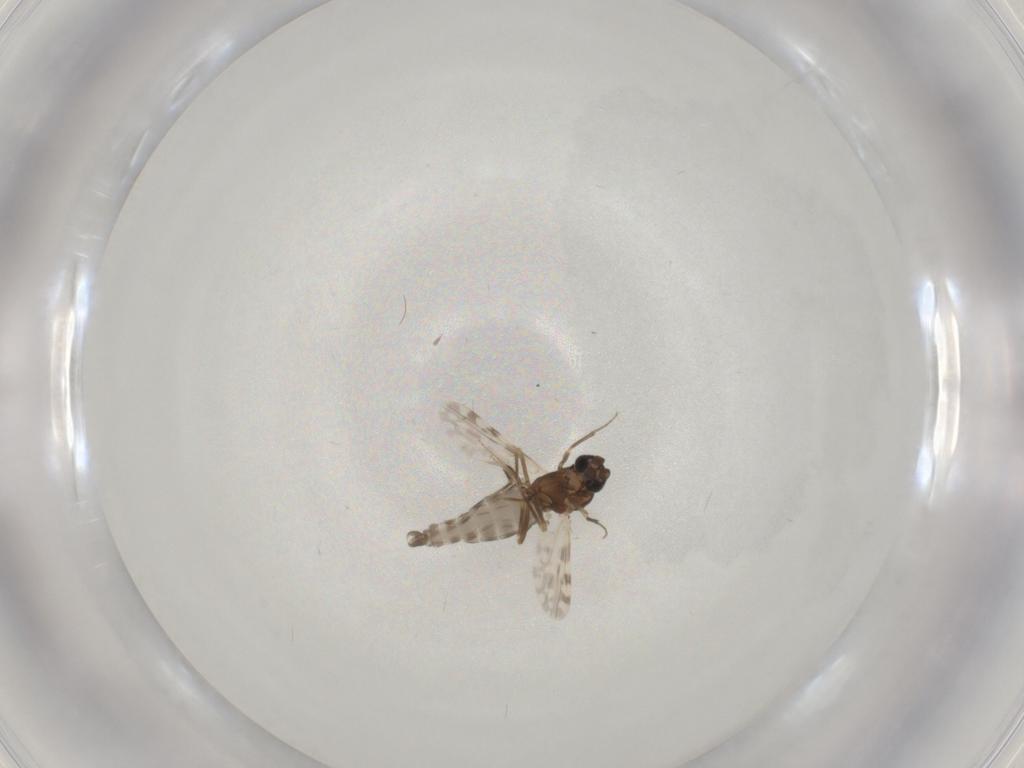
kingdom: Animalia
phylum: Arthropoda
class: Insecta
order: Diptera
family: Ceratopogonidae
